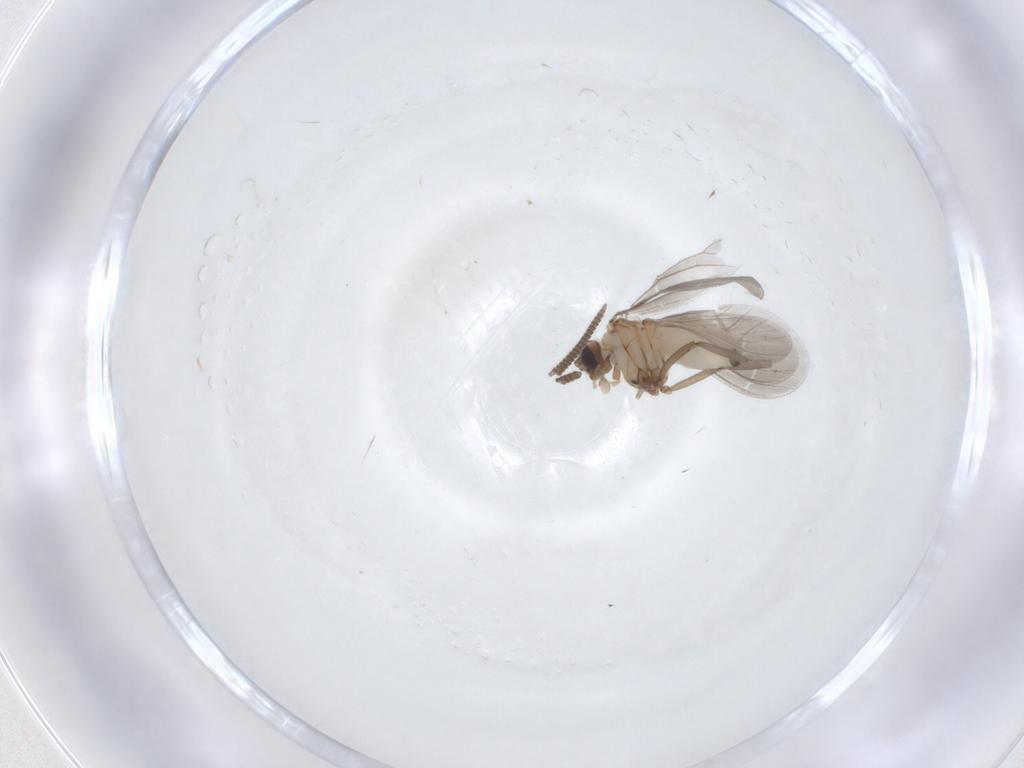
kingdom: Animalia
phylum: Arthropoda
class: Insecta
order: Neuroptera
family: Coniopterygidae
